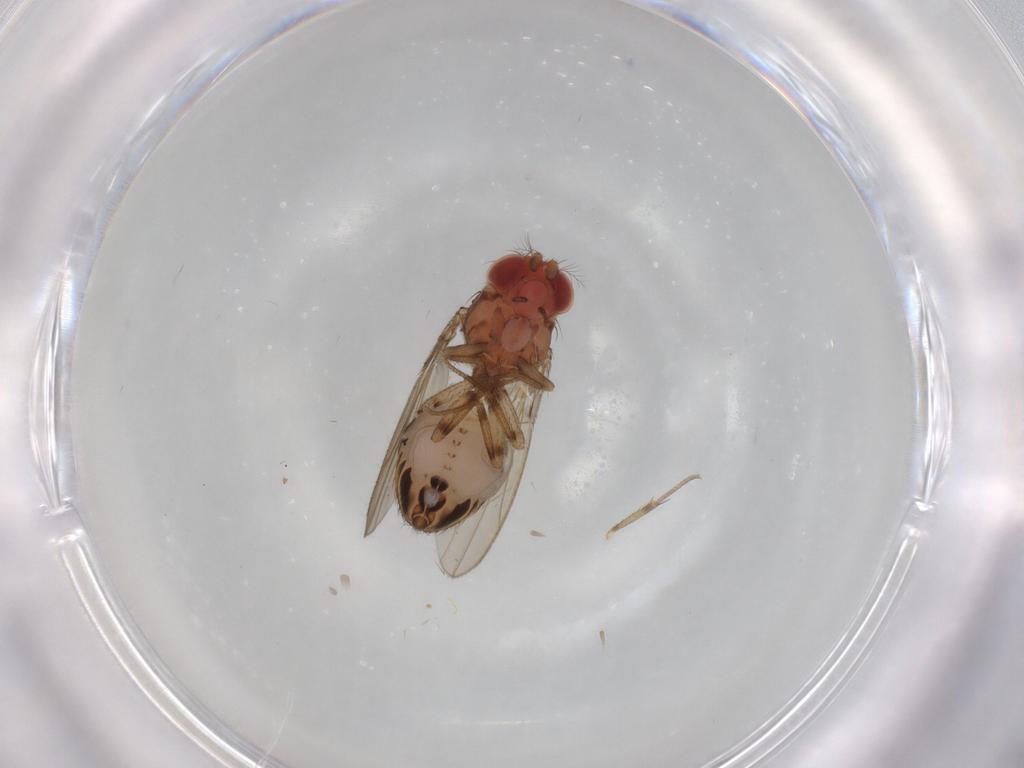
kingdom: Animalia
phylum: Arthropoda
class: Insecta
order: Diptera
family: Drosophilidae
